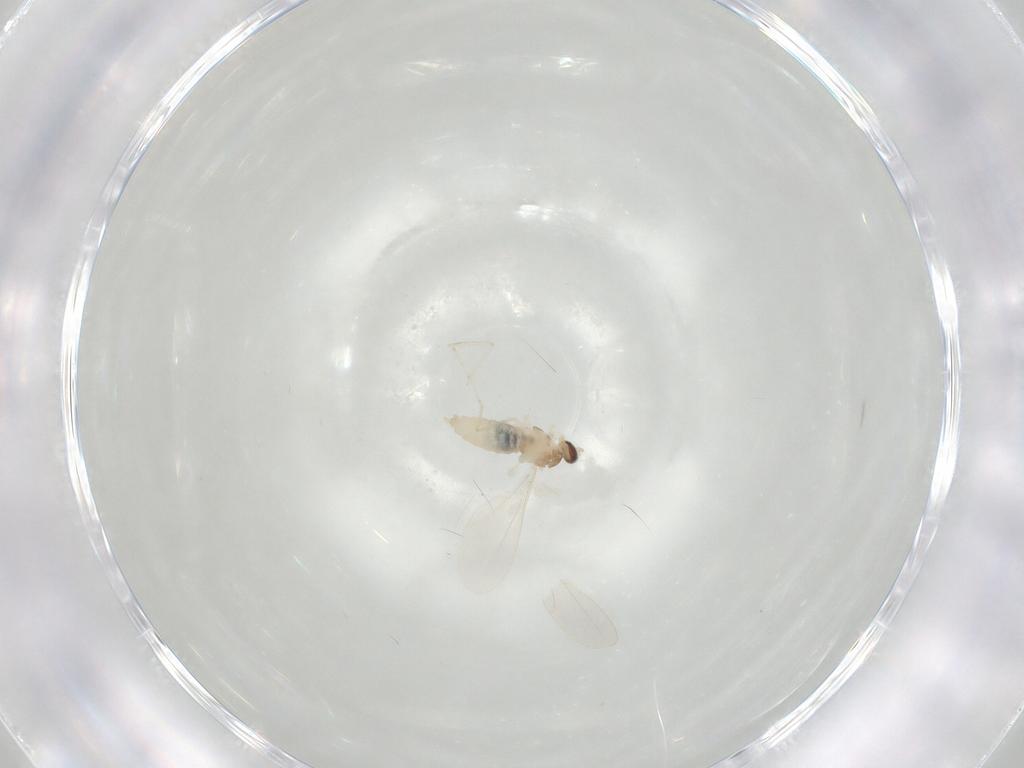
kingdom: Animalia
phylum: Arthropoda
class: Insecta
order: Diptera
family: Cecidomyiidae
